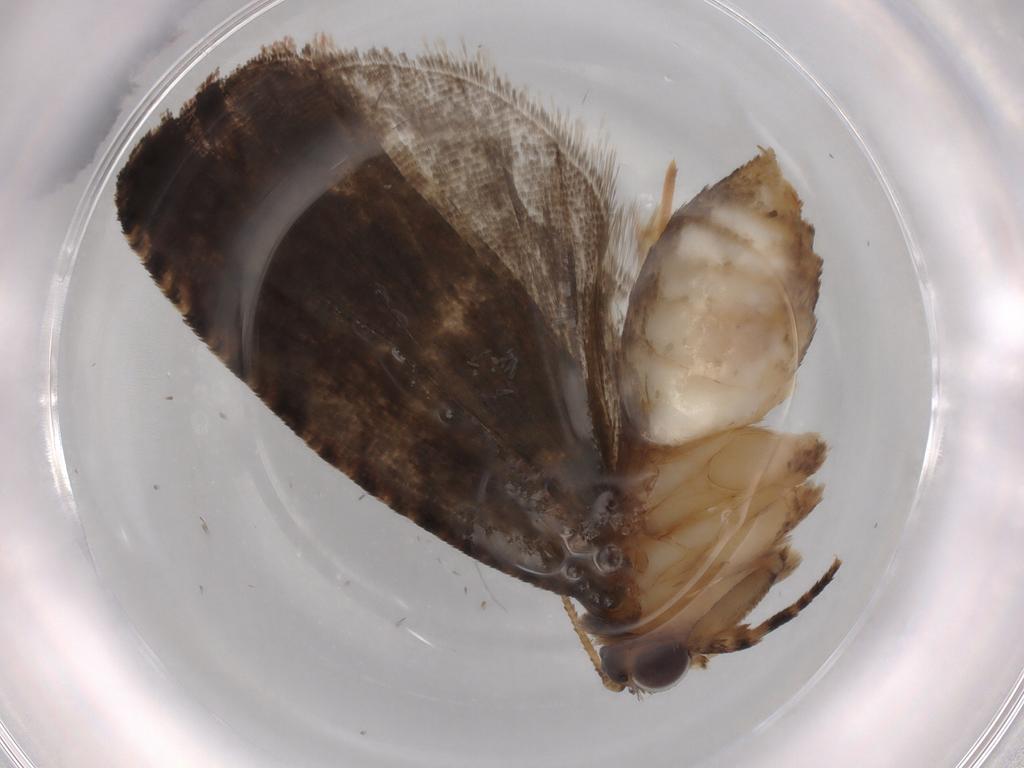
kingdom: Animalia
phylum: Arthropoda
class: Insecta
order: Lepidoptera
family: Tortricidae
